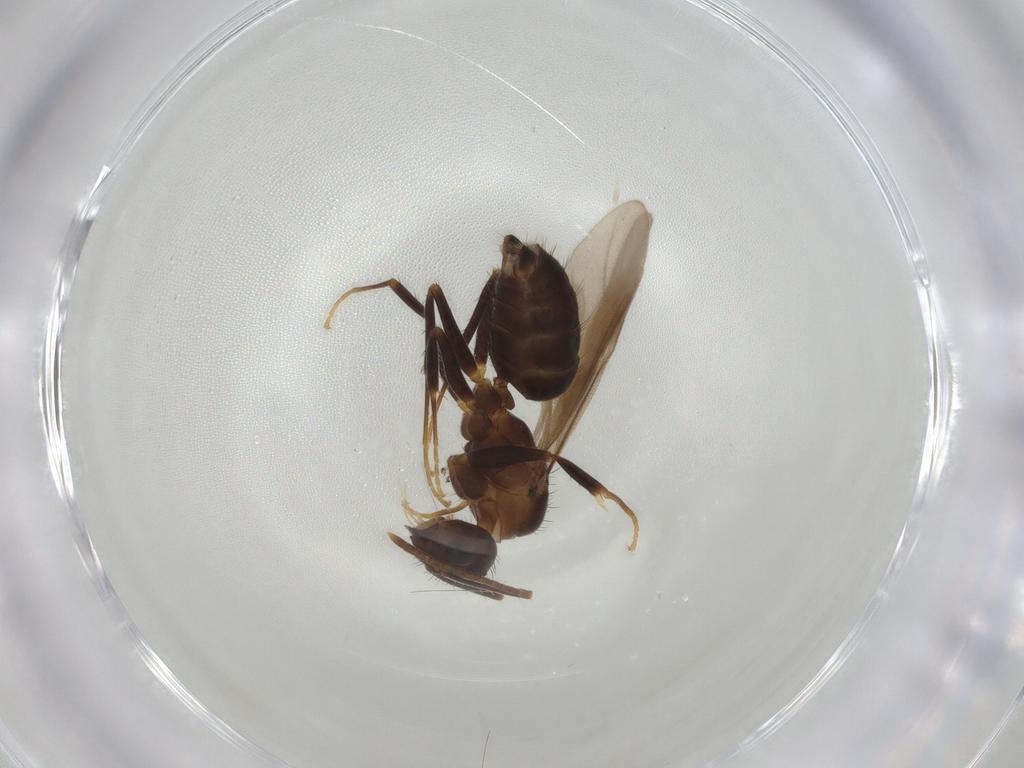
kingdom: Animalia
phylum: Arthropoda
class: Insecta
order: Hymenoptera
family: Formicidae
